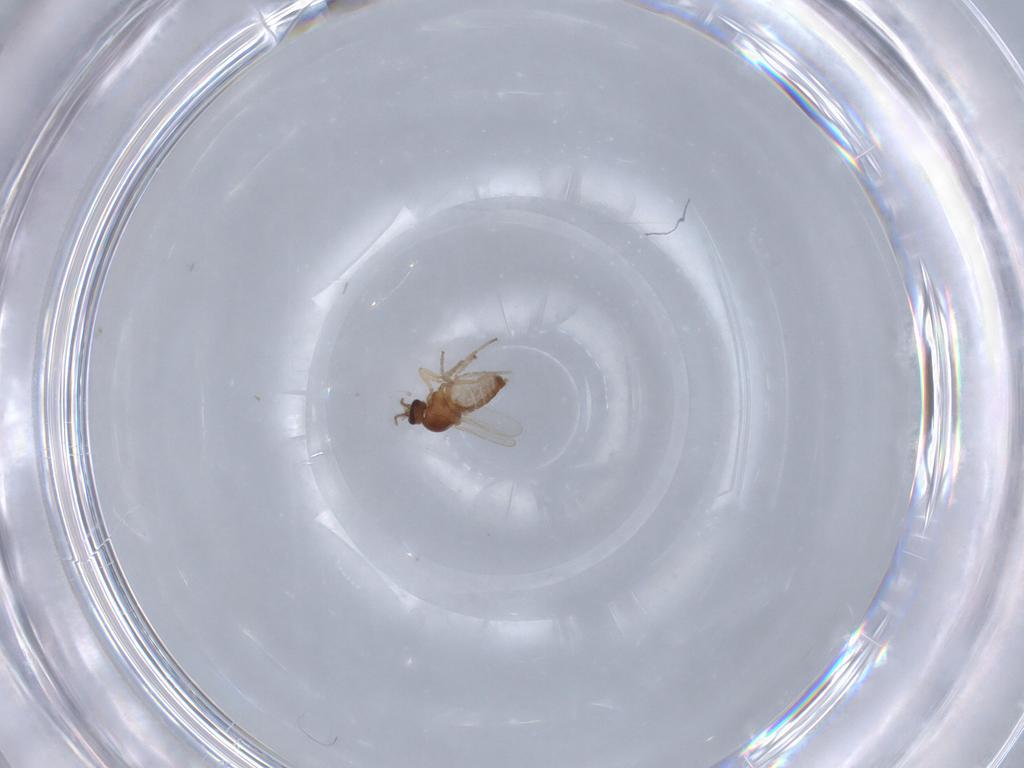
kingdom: Animalia
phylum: Arthropoda
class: Insecta
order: Diptera
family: Ceratopogonidae
